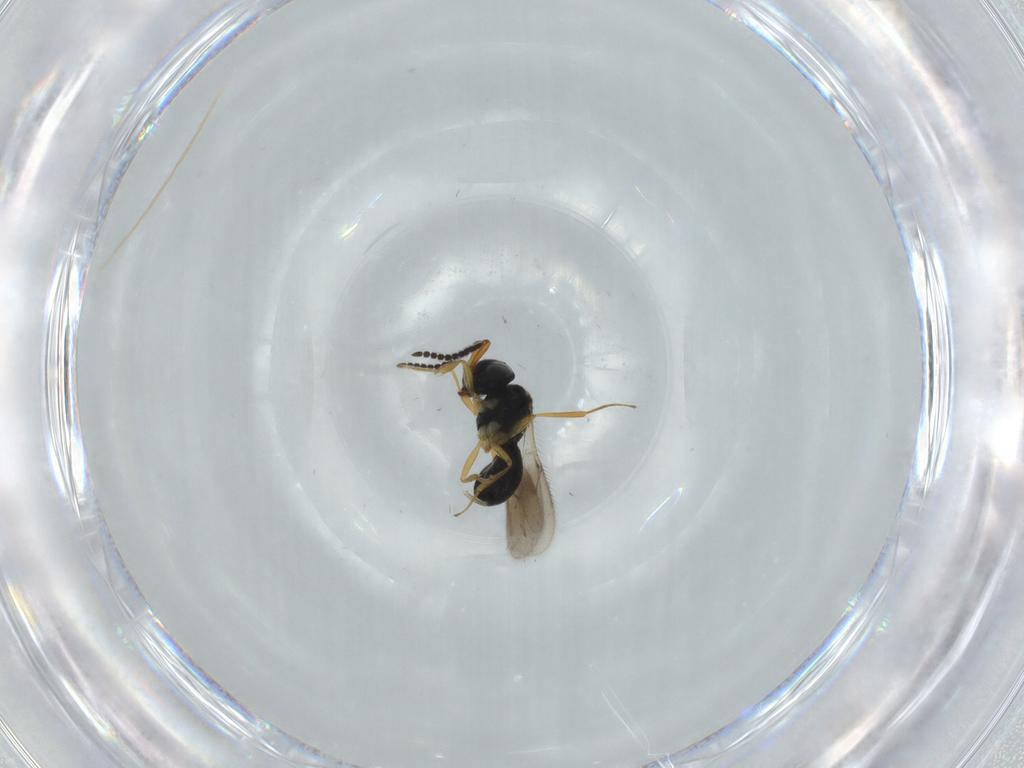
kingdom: Animalia
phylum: Arthropoda
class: Insecta
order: Hymenoptera
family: Scelionidae
